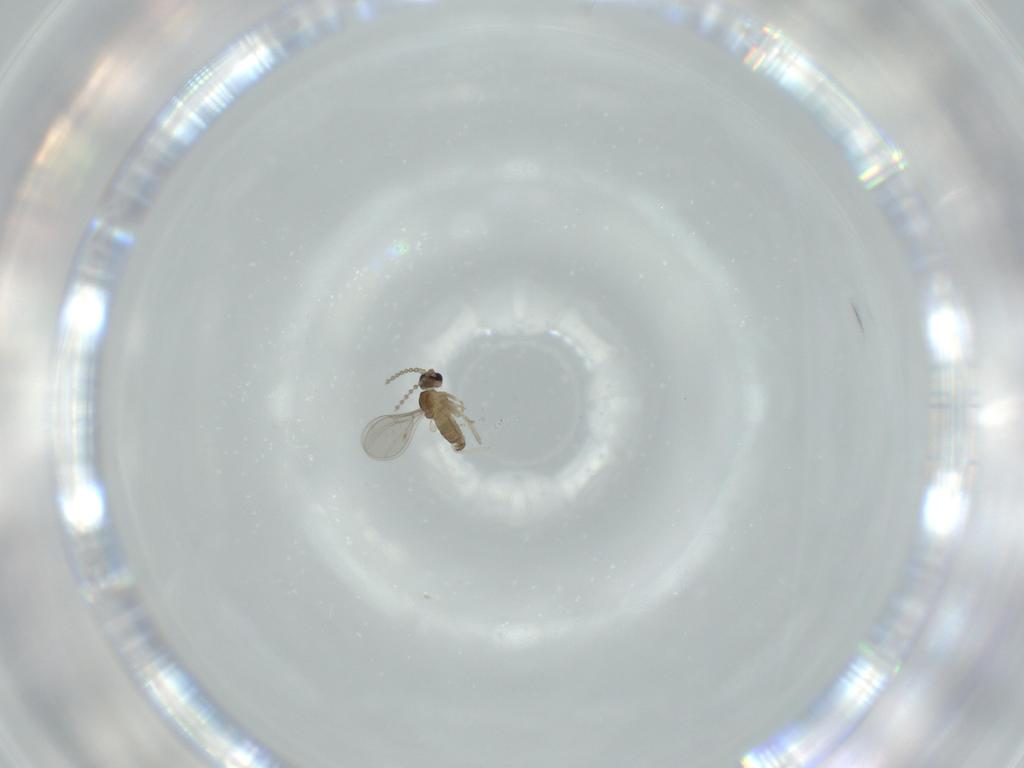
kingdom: Animalia
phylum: Arthropoda
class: Insecta
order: Diptera
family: Cecidomyiidae
